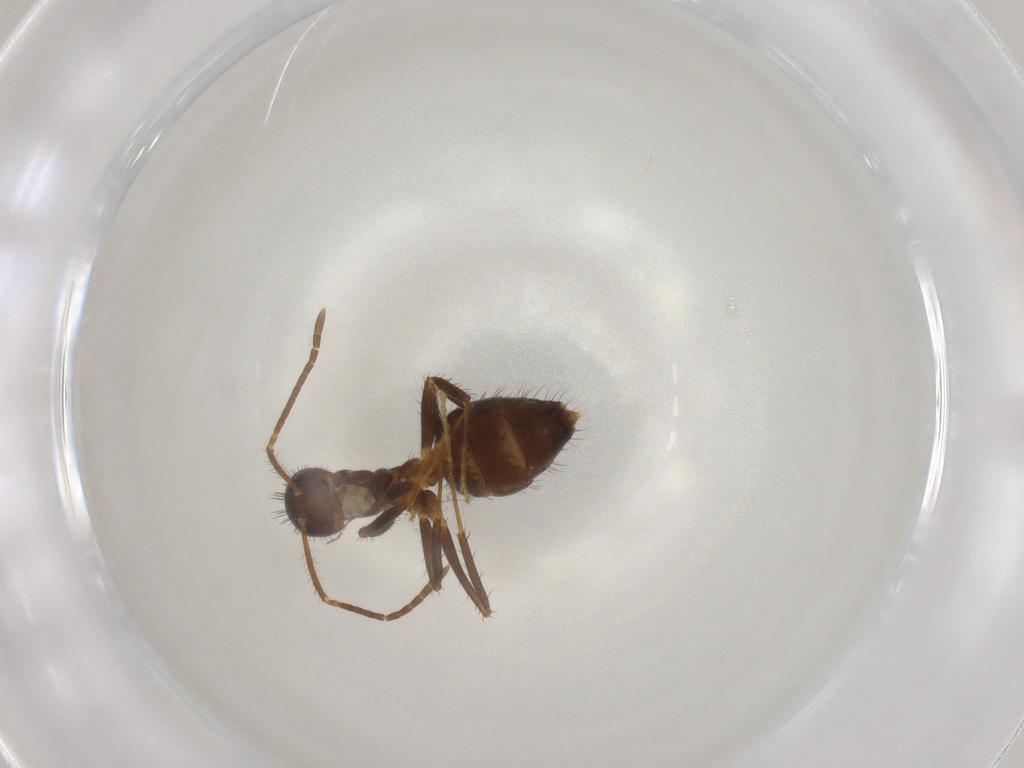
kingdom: Animalia
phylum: Arthropoda
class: Insecta
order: Hymenoptera
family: Formicidae
